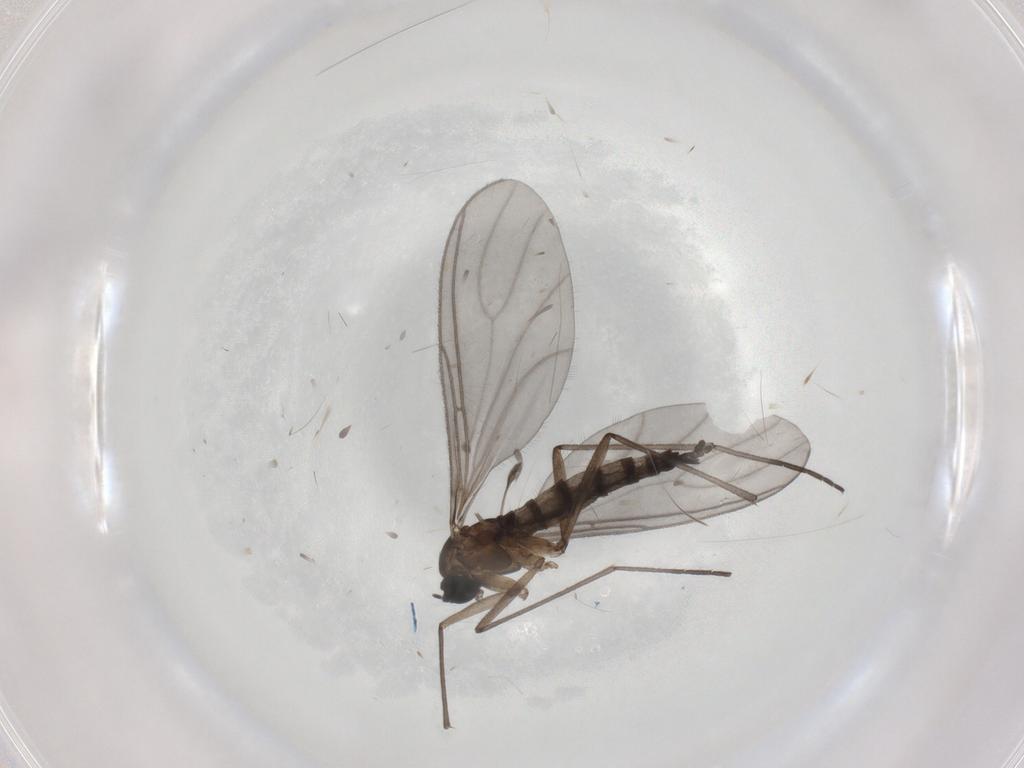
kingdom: Animalia
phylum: Arthropoda
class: Insecta
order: Diptera
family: Sciaridae
